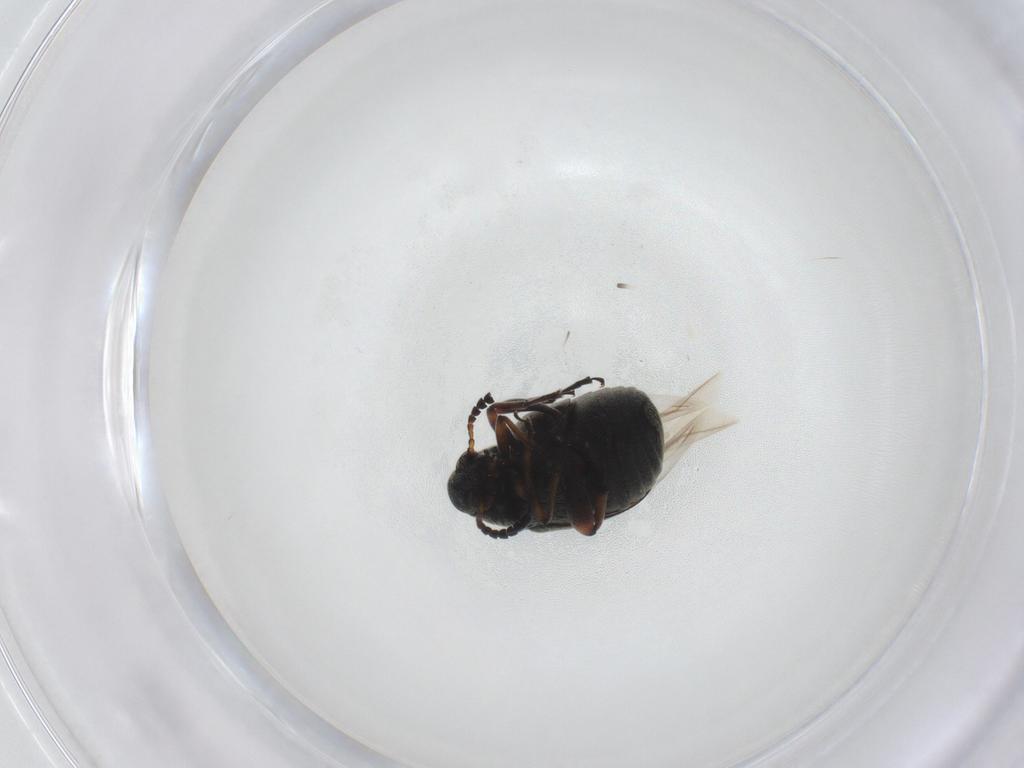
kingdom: Animalia
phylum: Arthropoda
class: Insecta
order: Coleoptera
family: Chrysomelidae
